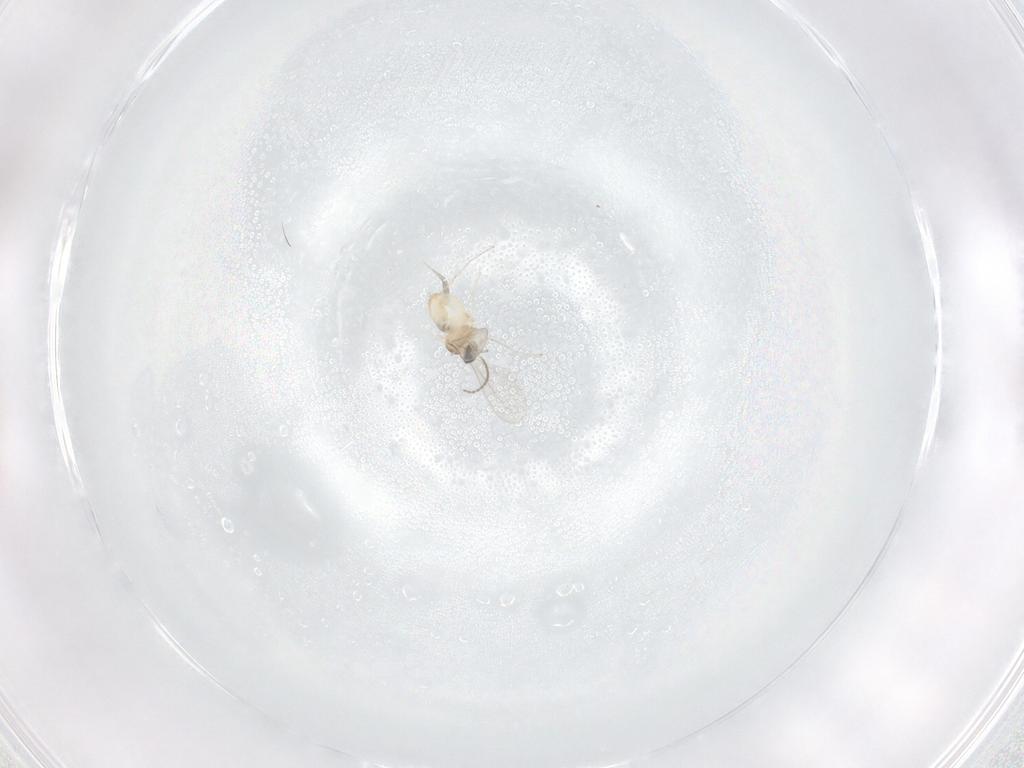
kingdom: Animalia
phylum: Arthropoda
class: Insecta
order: Diptera
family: Cecidomyiidae
